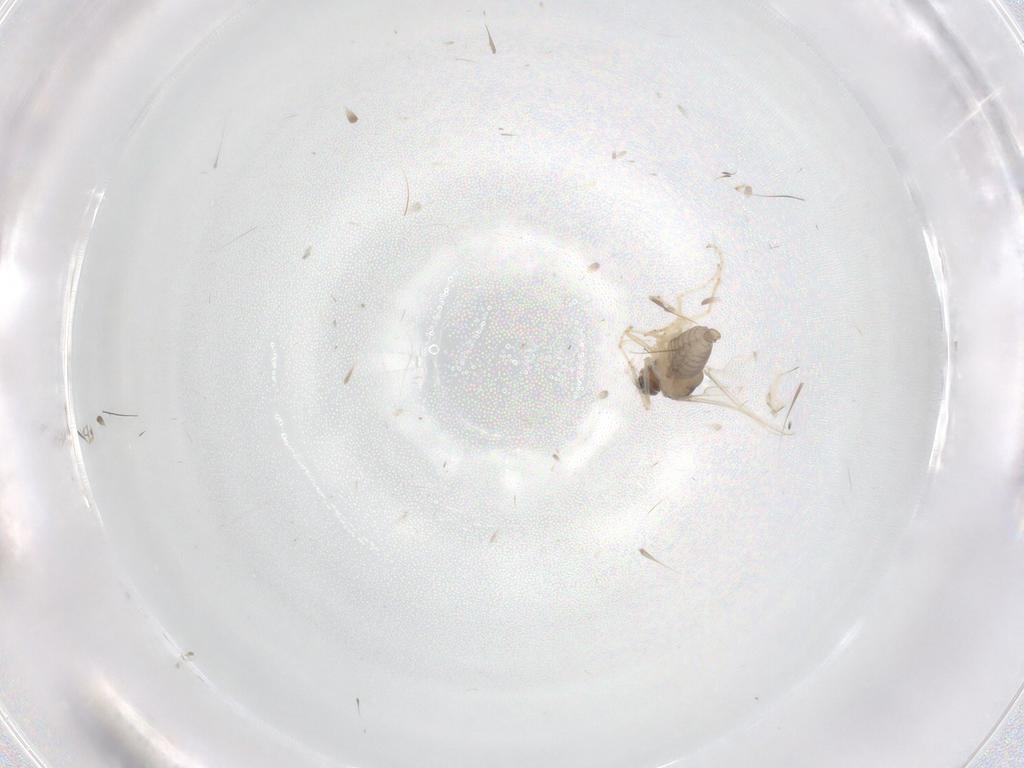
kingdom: Animalia
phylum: Arthropoda
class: Insecta
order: Diptera
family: Cecidomyiidae
